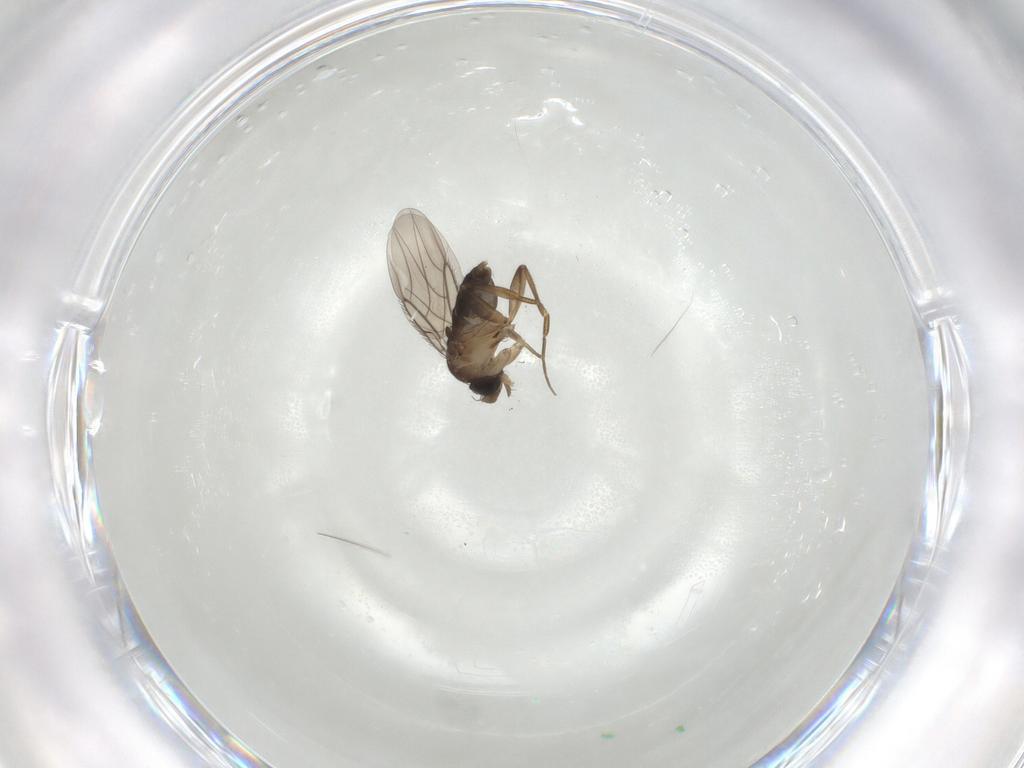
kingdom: Animalia
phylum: Arthropoda
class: Insecta
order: Diptera
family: Phoridae
